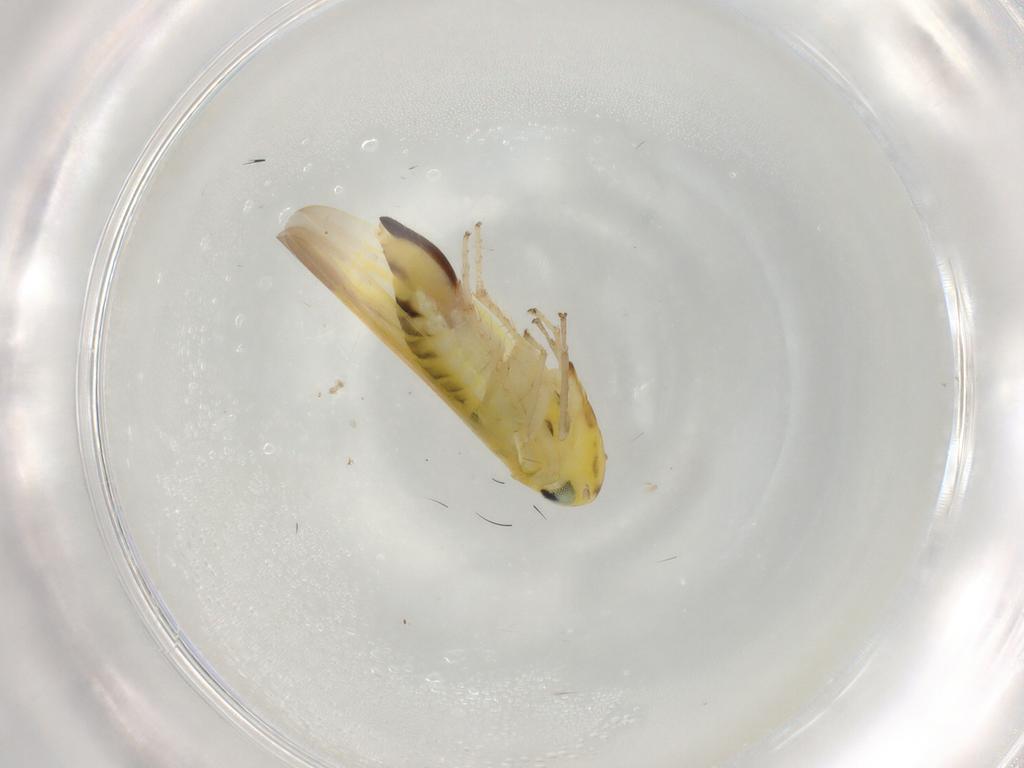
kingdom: Animalia
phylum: Arthropoda
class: Insecta
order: Hemiptera
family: Cicadellidae
